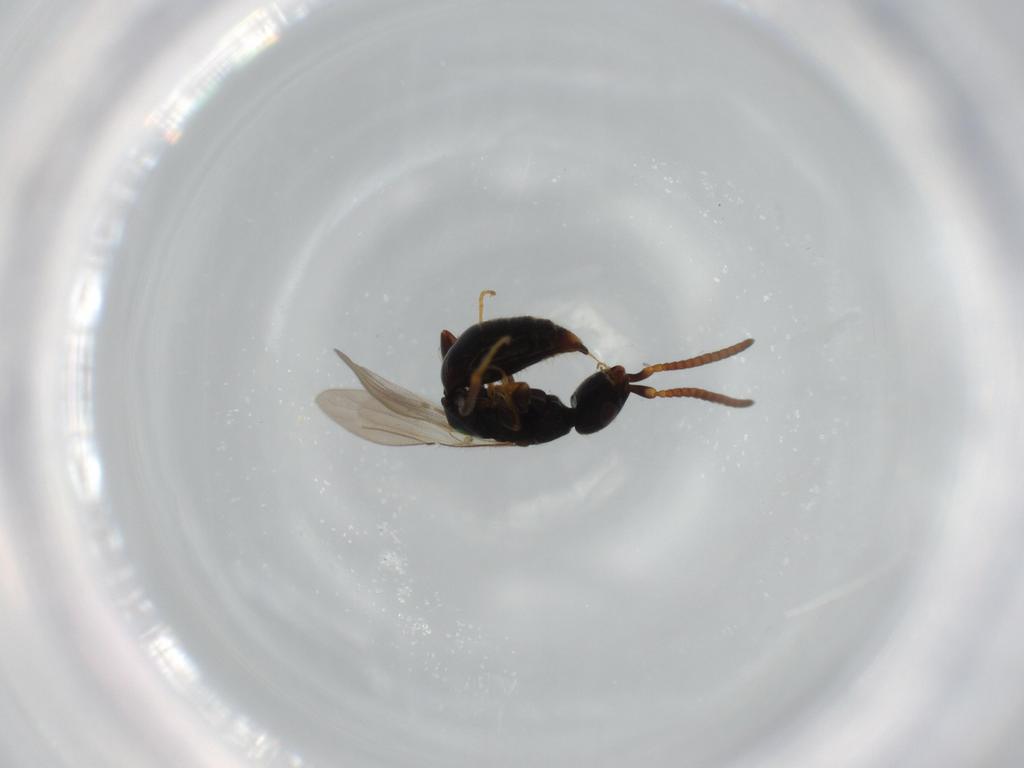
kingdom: Animalia
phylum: Arthropoda
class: Insecta
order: Hymenoptera
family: Bethylidae
